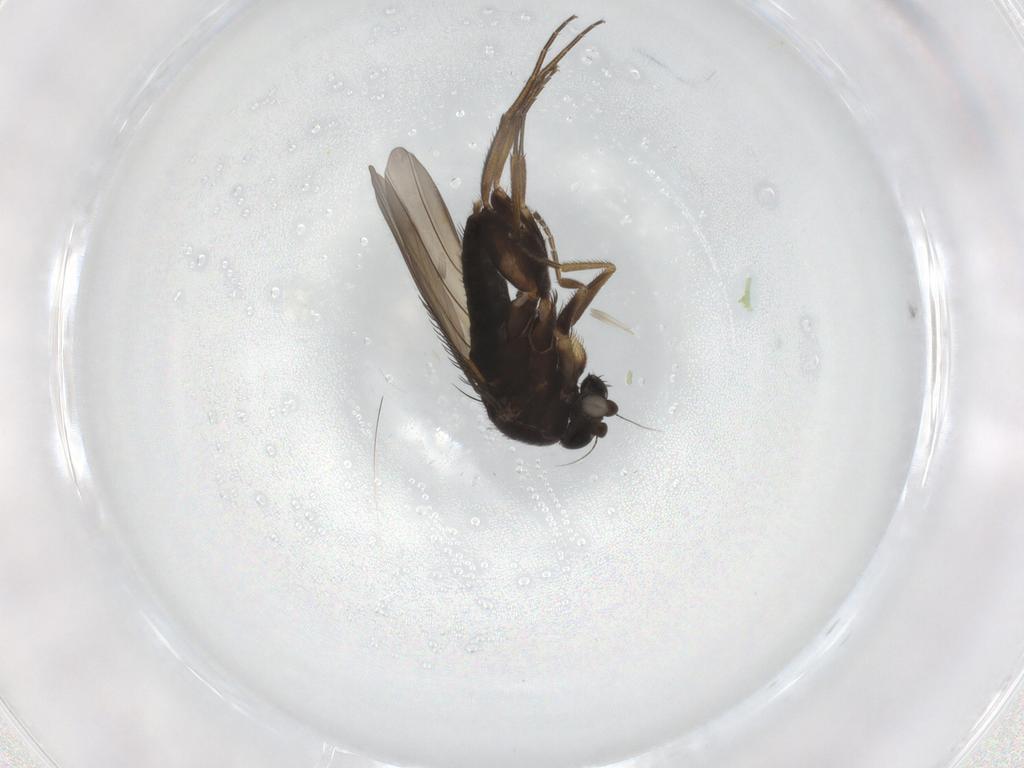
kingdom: Animalia
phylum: Arthropoda
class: Insecta
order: Diptera
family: Phoridae
